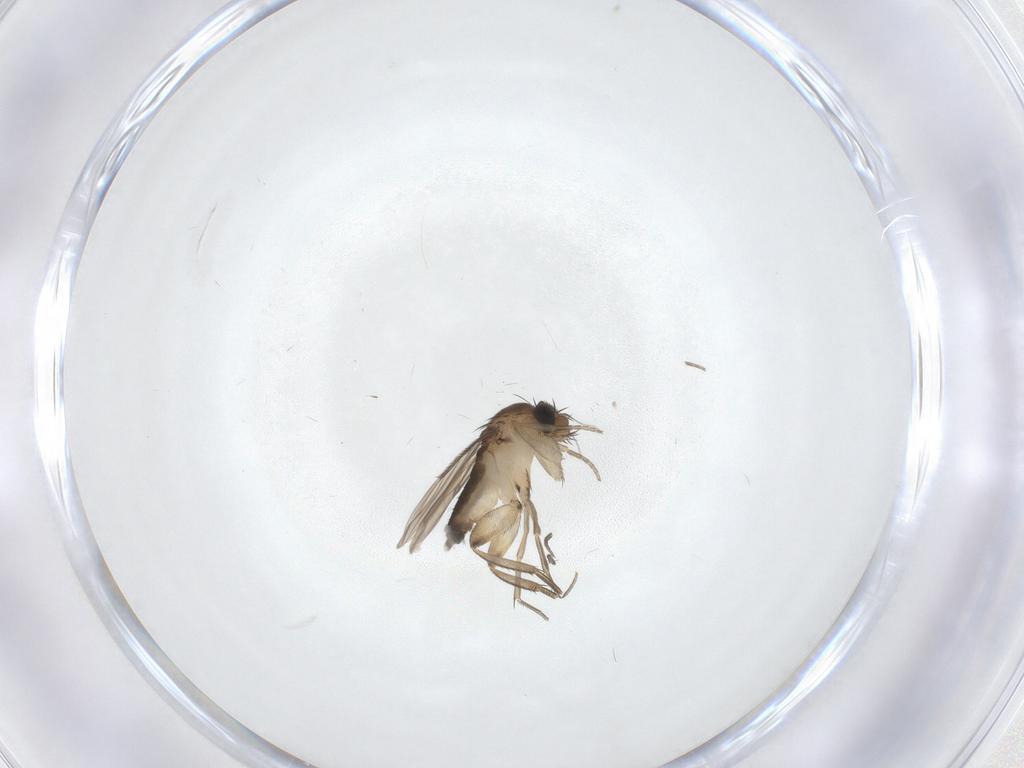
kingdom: Animalia
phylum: Arthropoda
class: Insecta
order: Diptera
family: Phoridae
